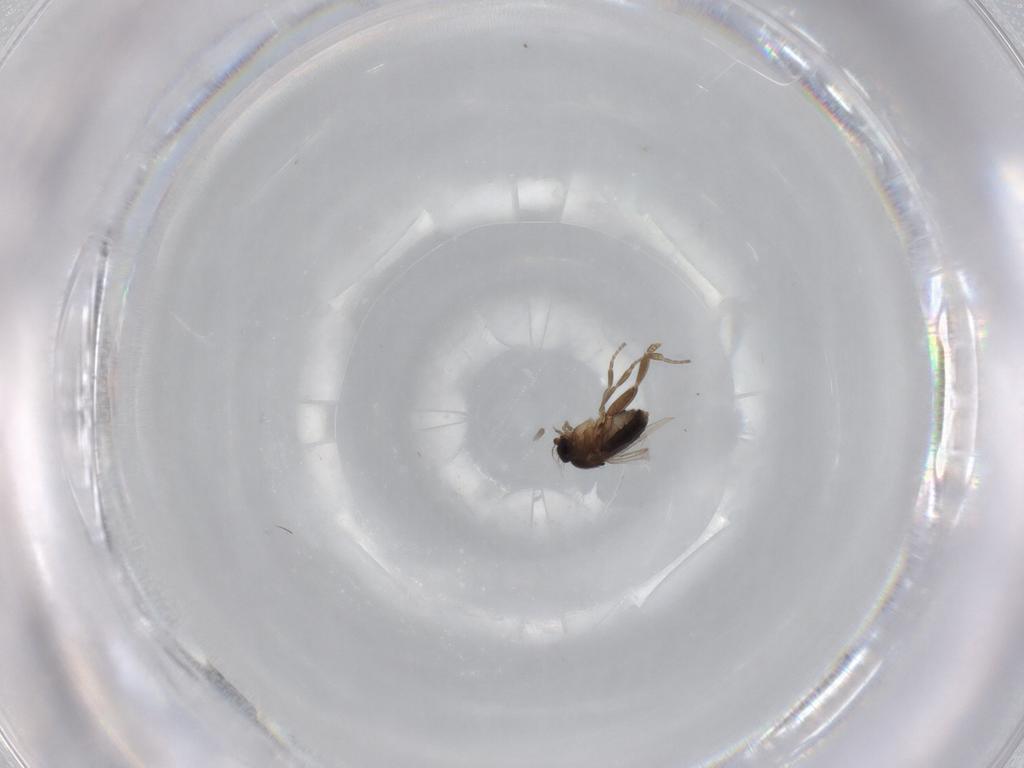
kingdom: Animalia
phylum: Arthropoda
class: Insecta
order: Diptera
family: Phoridae
